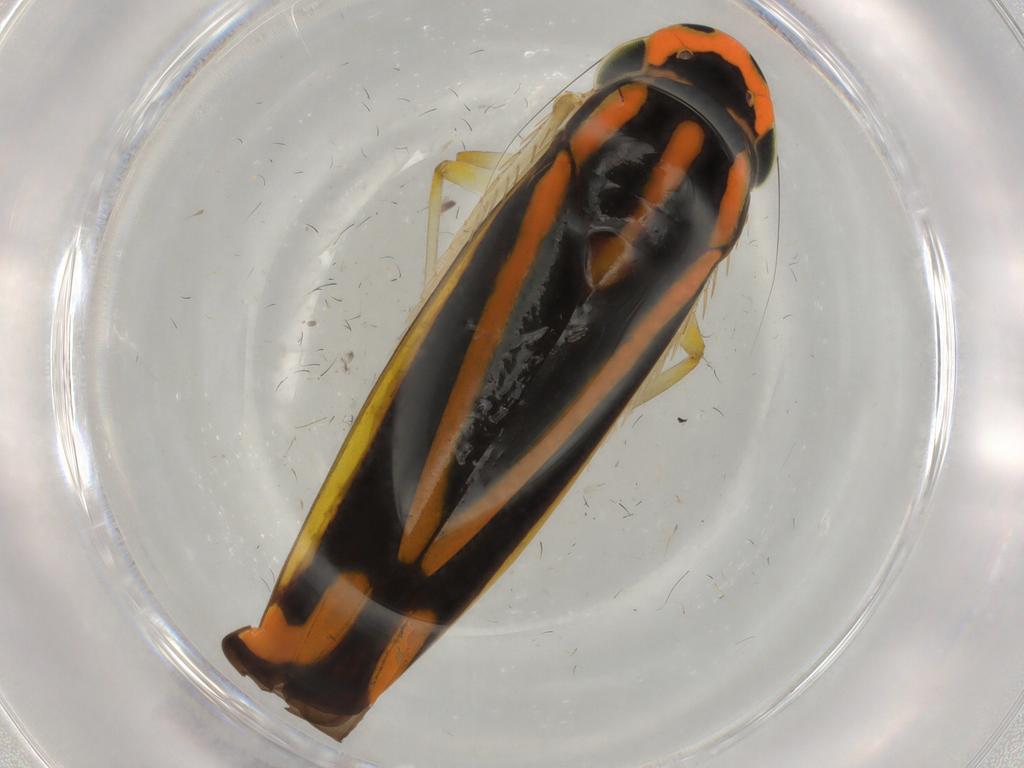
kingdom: Animalia
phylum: Arthropoda
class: Insecta
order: Hemiptera
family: Cicadellidae
